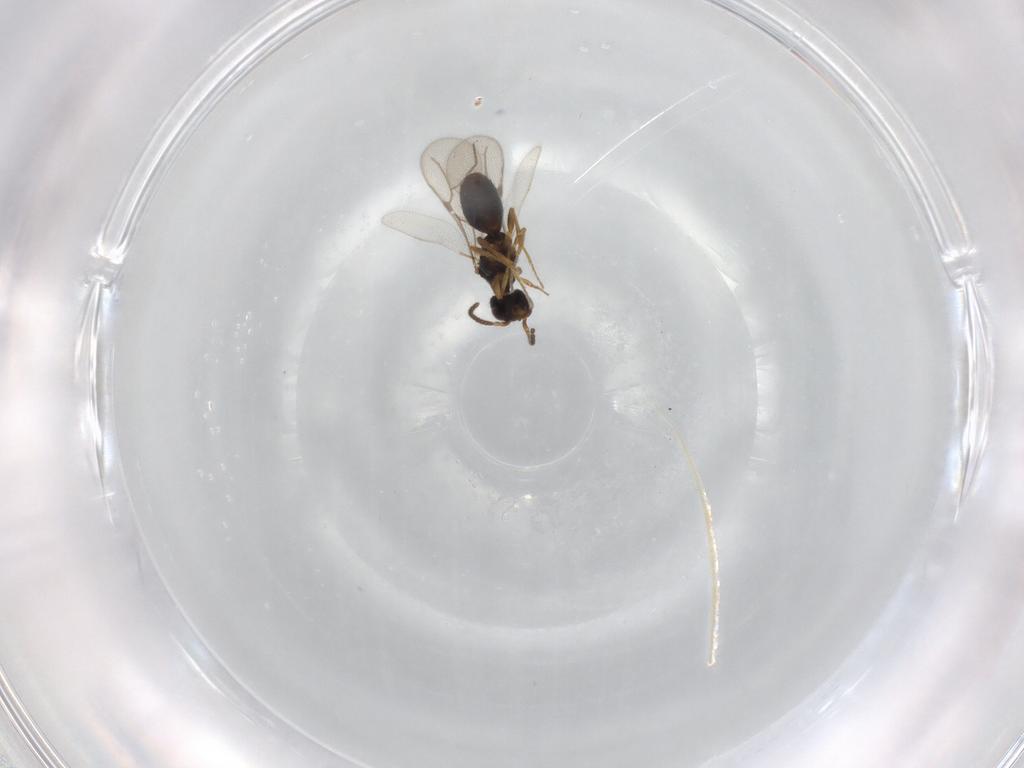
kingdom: Animalia
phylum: Arthropoda
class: Insecta
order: Hymenoptera
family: Bethylidae
